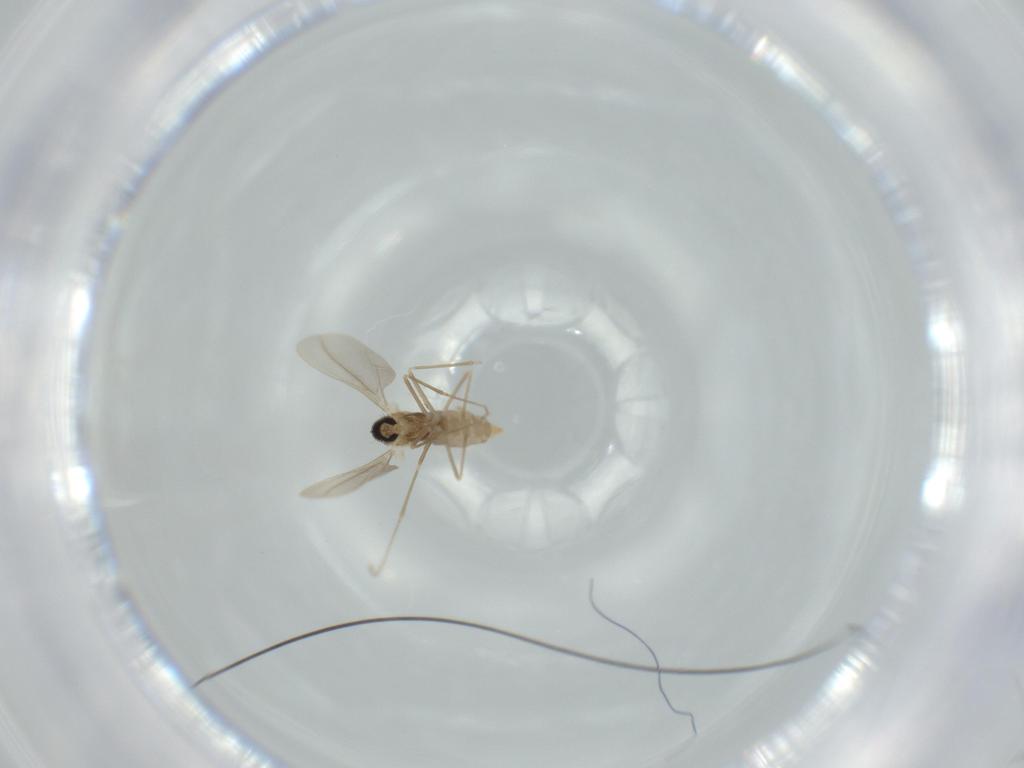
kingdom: Animalia
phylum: Arthropoda
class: Insecta
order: Diptera
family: Cecidomyiidae
